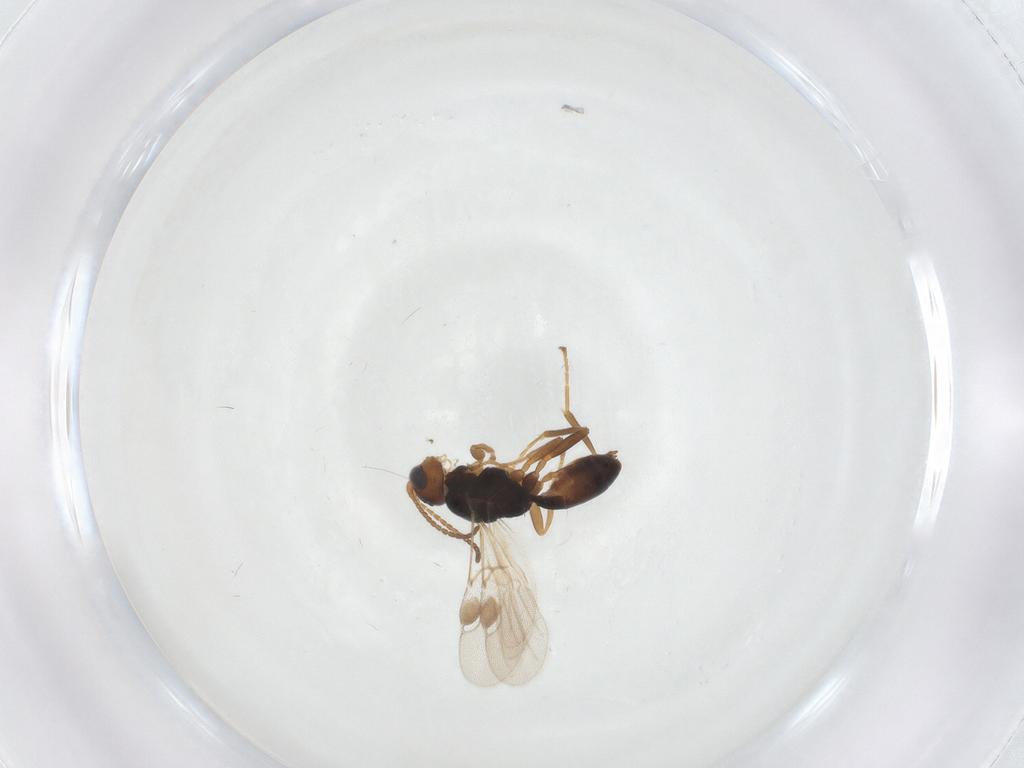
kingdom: Animalia
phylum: Arthropoda
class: Insecta
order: Hymenoptera
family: Braconidae
